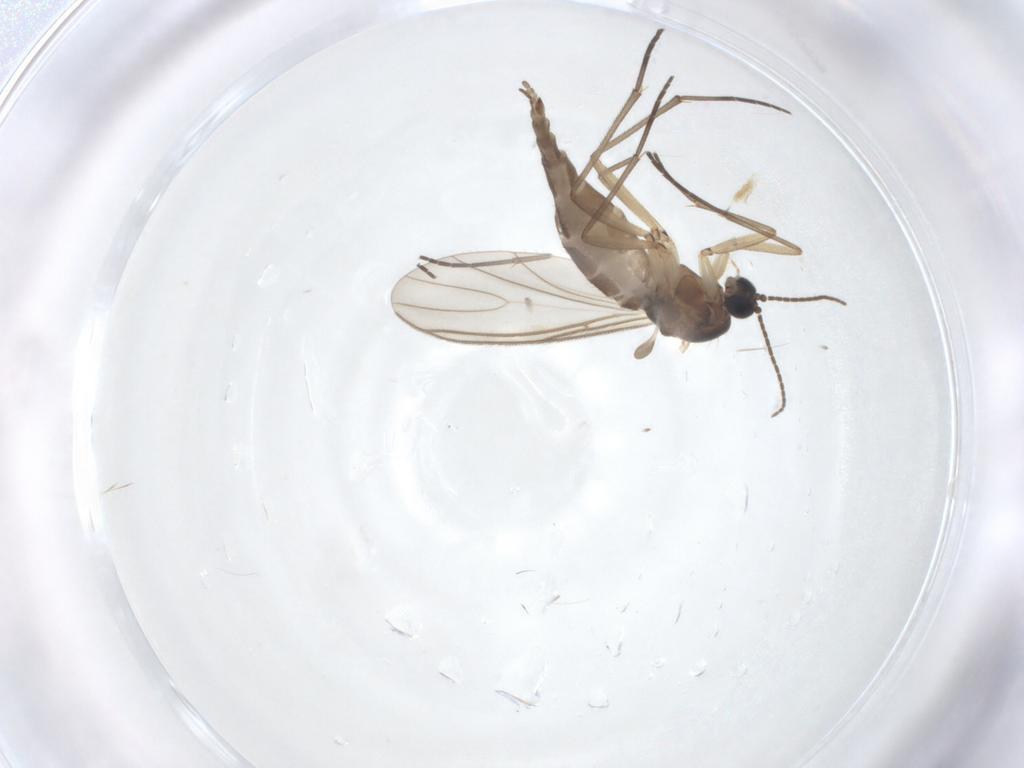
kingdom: Animalia
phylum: Arthropoda
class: Insecta
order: Diptera
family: Sciaridae
